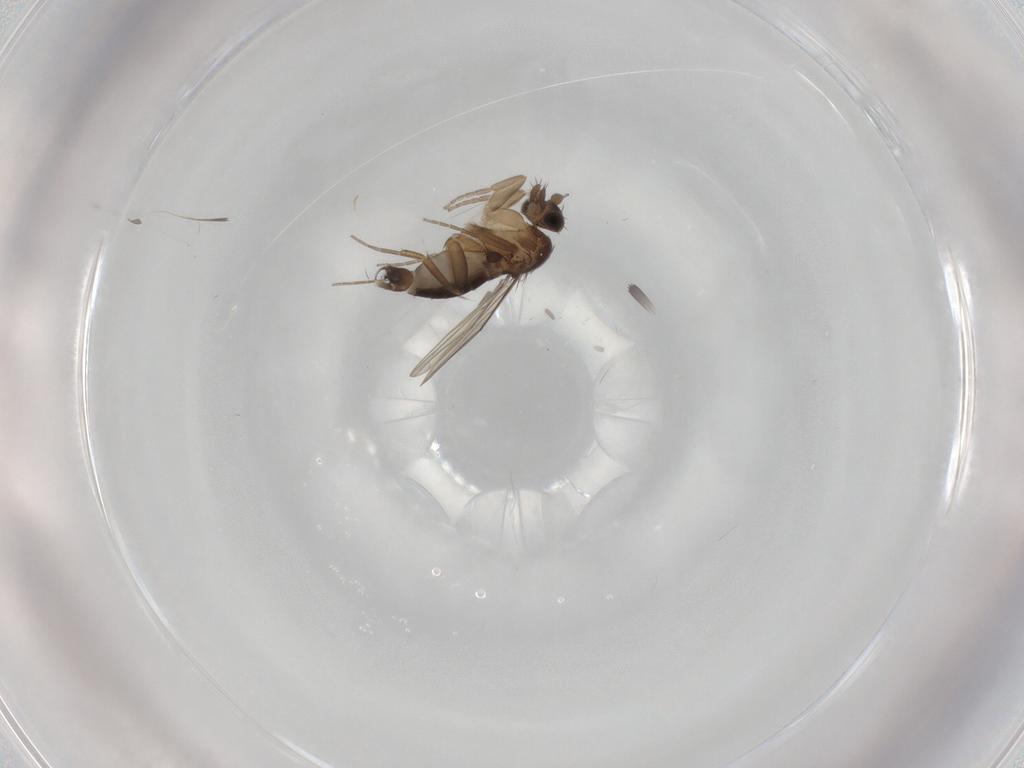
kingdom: Animalia
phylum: Arthropoda
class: Insecta
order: Diptera
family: Phoridae
